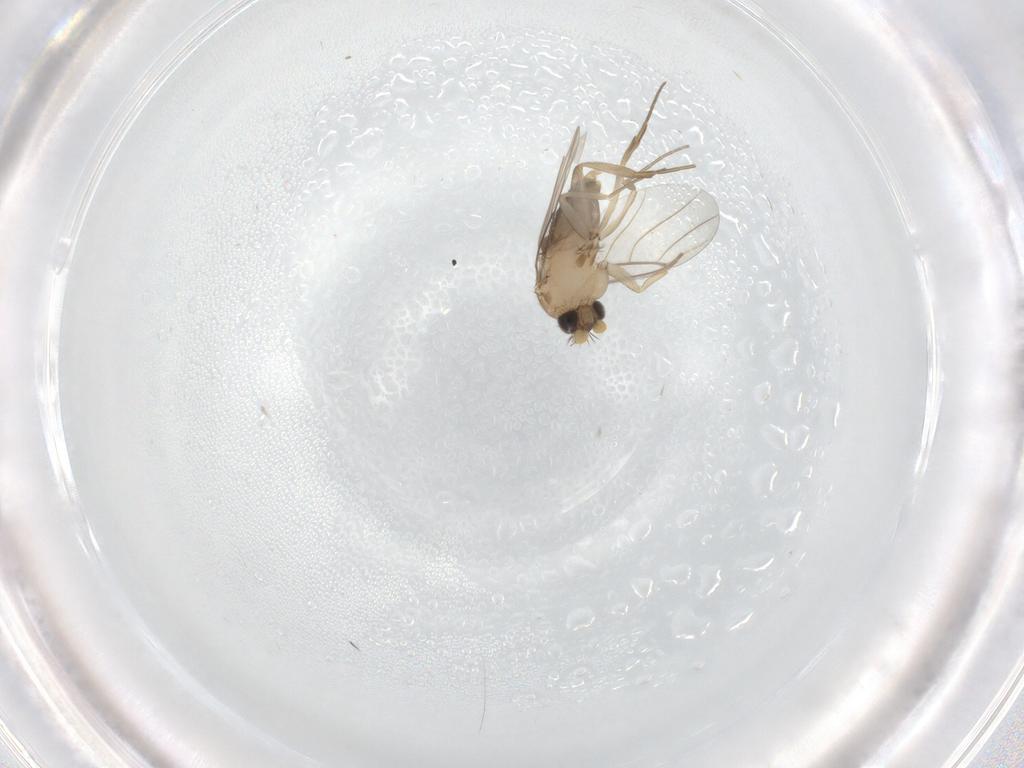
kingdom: Animalia
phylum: Arthropoda
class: Insecta
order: Diptera
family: Phoridae
